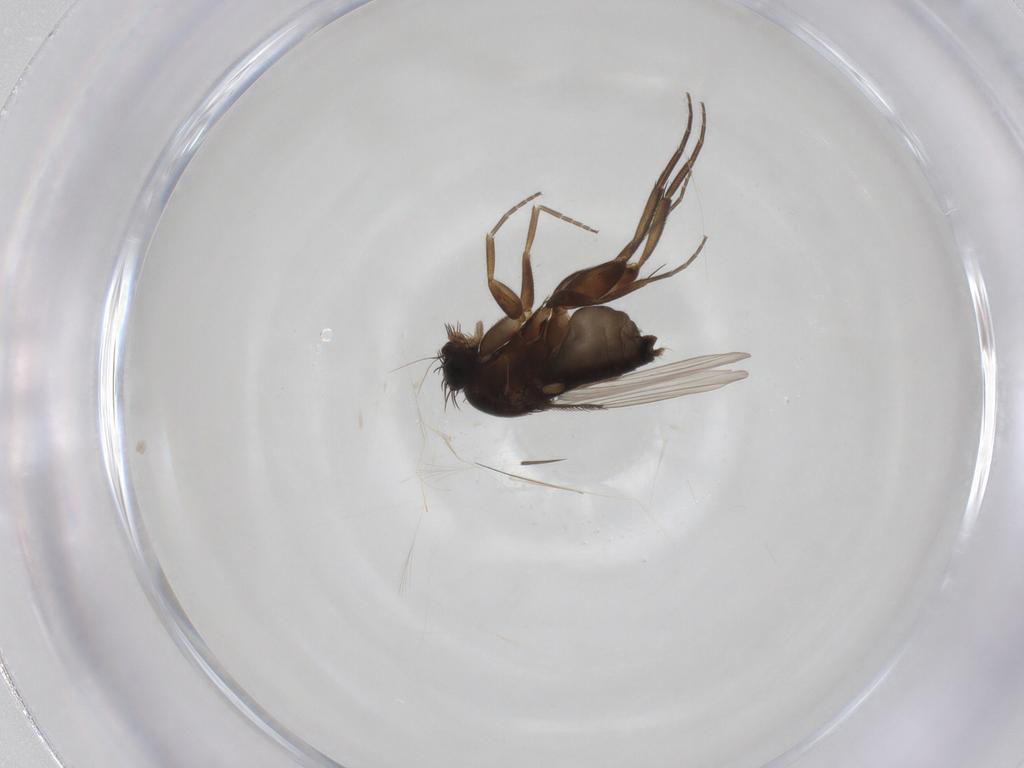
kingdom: Animalia
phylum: Arthropoda
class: Insecta
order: Diptera
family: Phoridae
